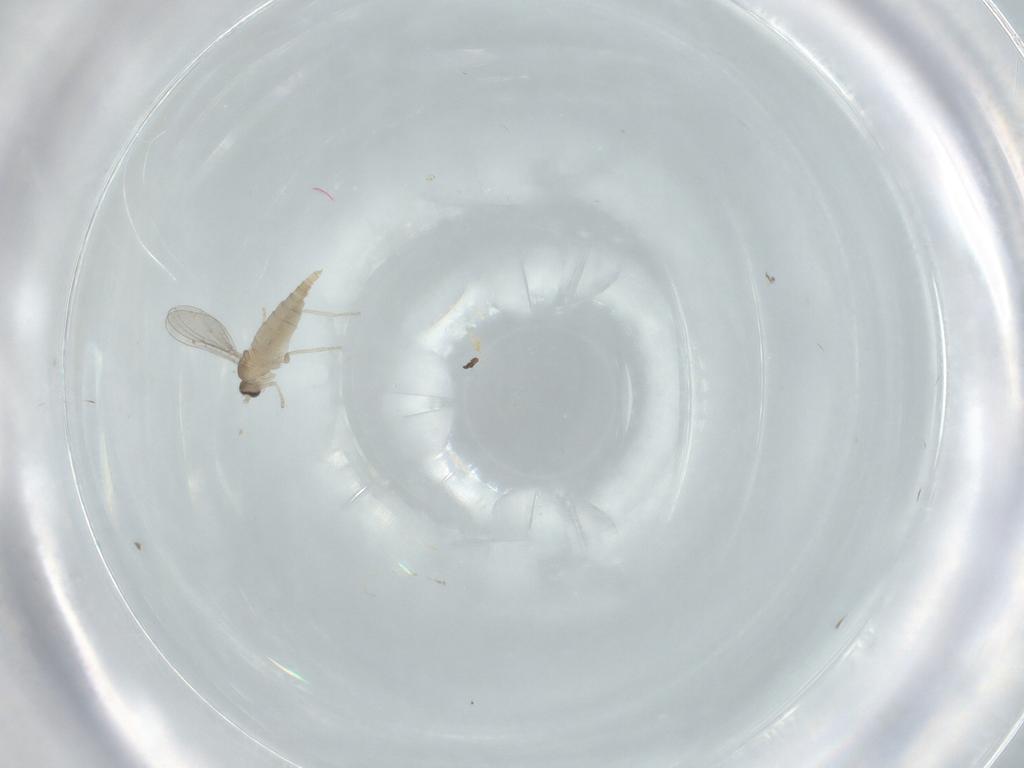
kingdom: Animalia
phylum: Arthropoda
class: Insecta
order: Diptera
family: Cecidomyiidae
